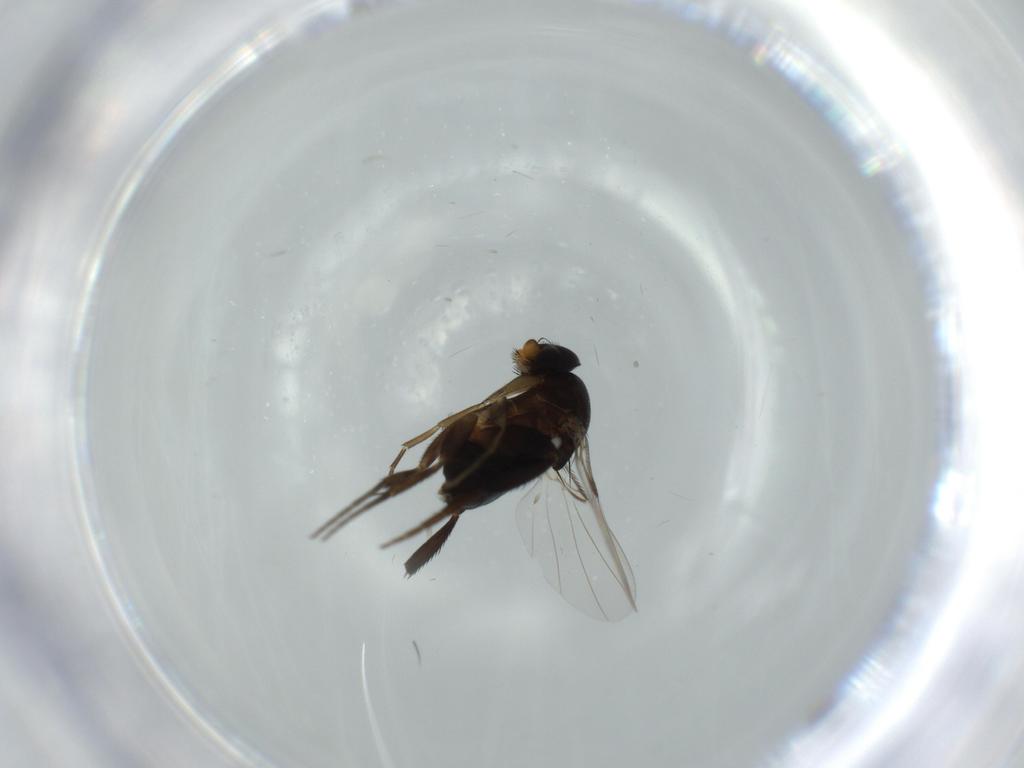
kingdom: Animalia
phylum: Arthropoda
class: Insecta
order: Diptera
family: Phoridae
